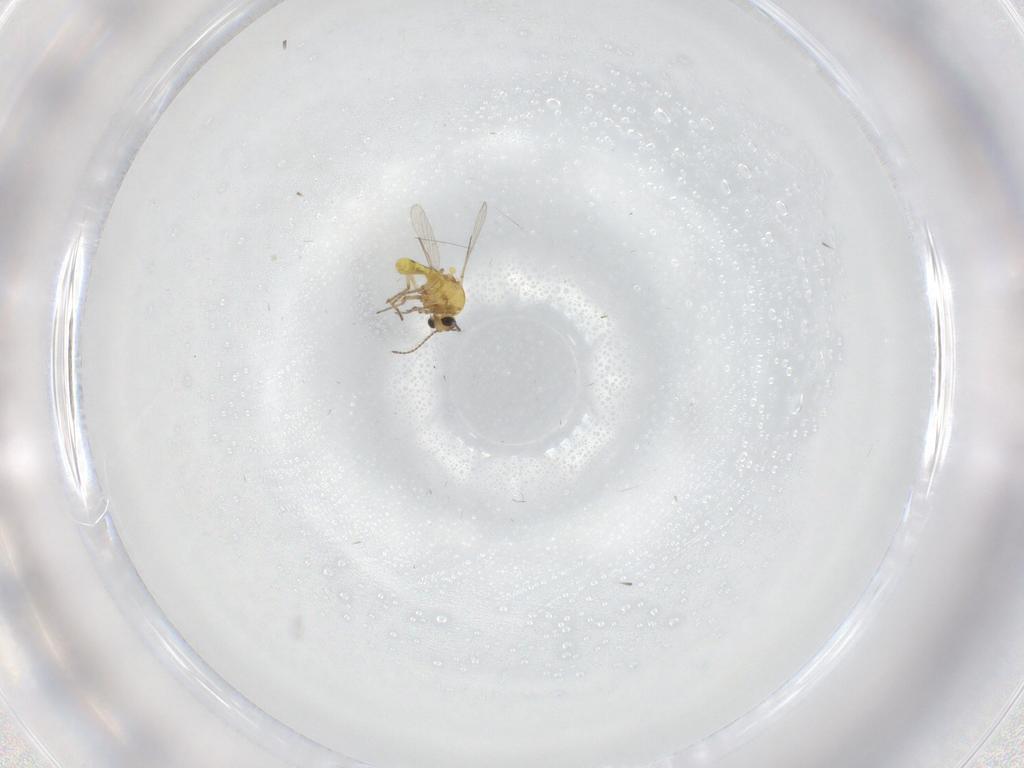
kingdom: Animalia
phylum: Arthropoda
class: Insecta
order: Diptera
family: Ceratopogonidae
